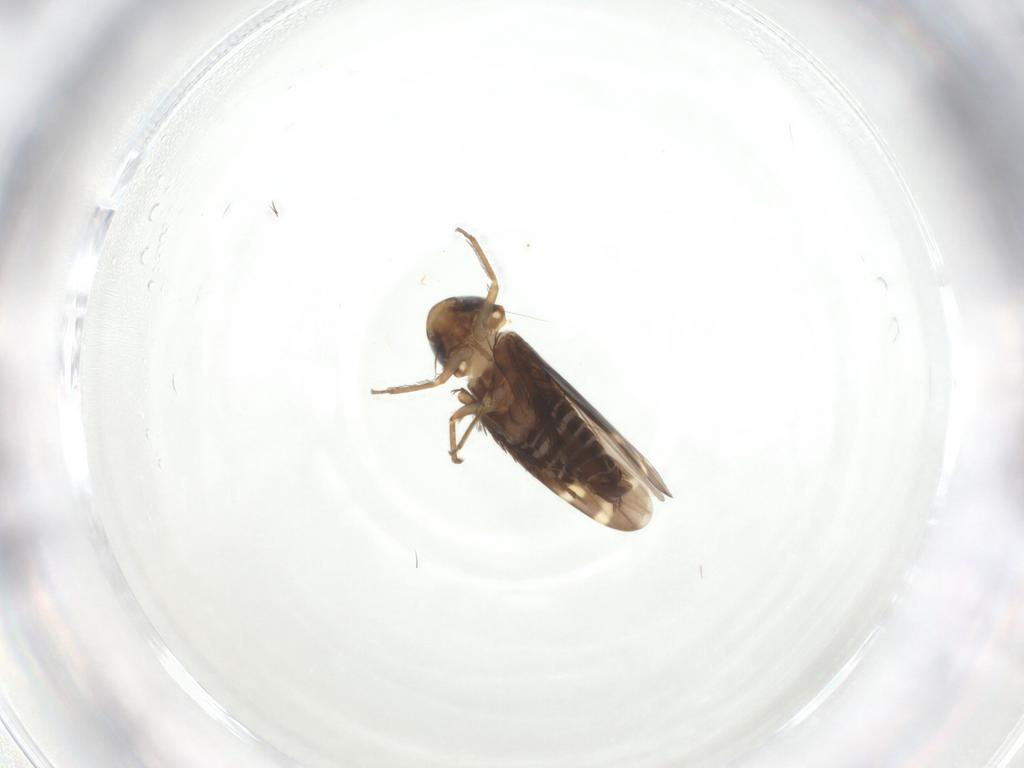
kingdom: Animalia
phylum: Arthropoda
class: Insecta
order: Hemiptera
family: Cicadellidae
